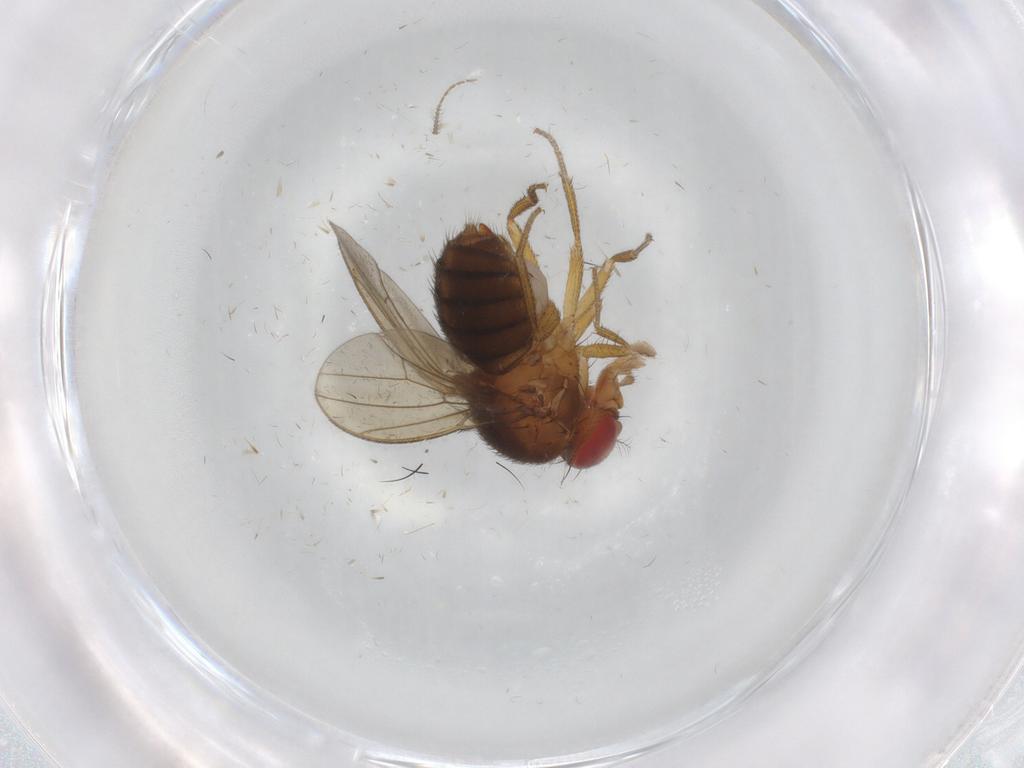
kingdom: Animalia
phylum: Arthropoda
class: Insecta
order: Diptera
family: Drosophilidae
